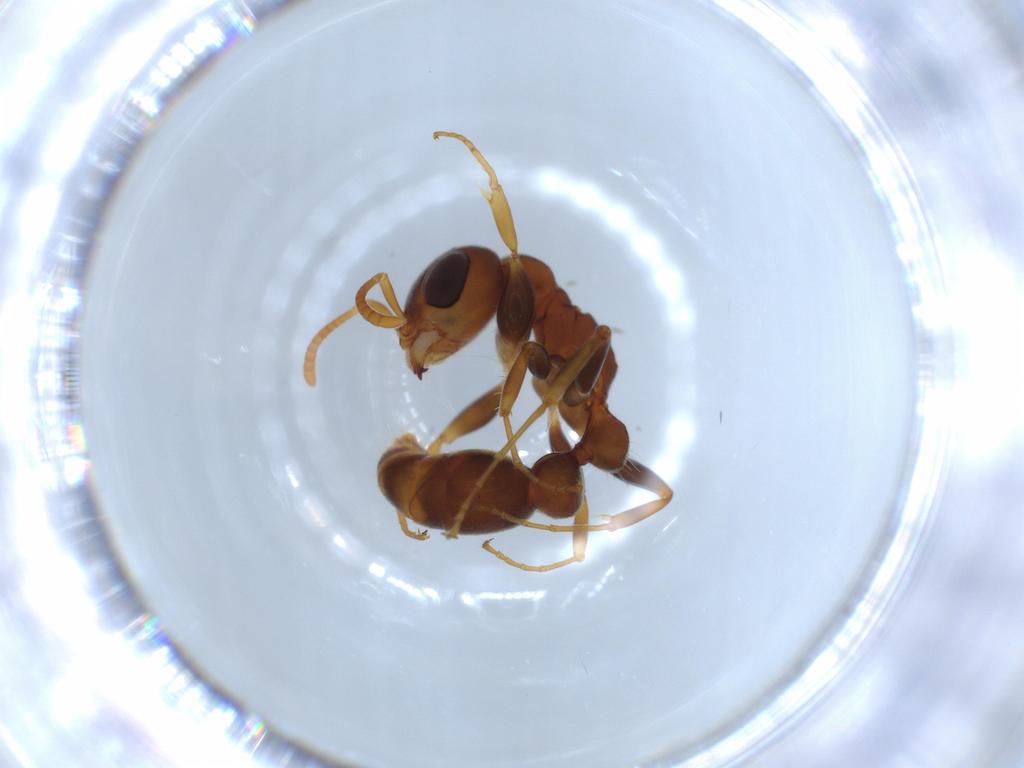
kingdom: Animalia
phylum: Arthropoda
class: Insecta
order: Hymenoptera
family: Formicidae
